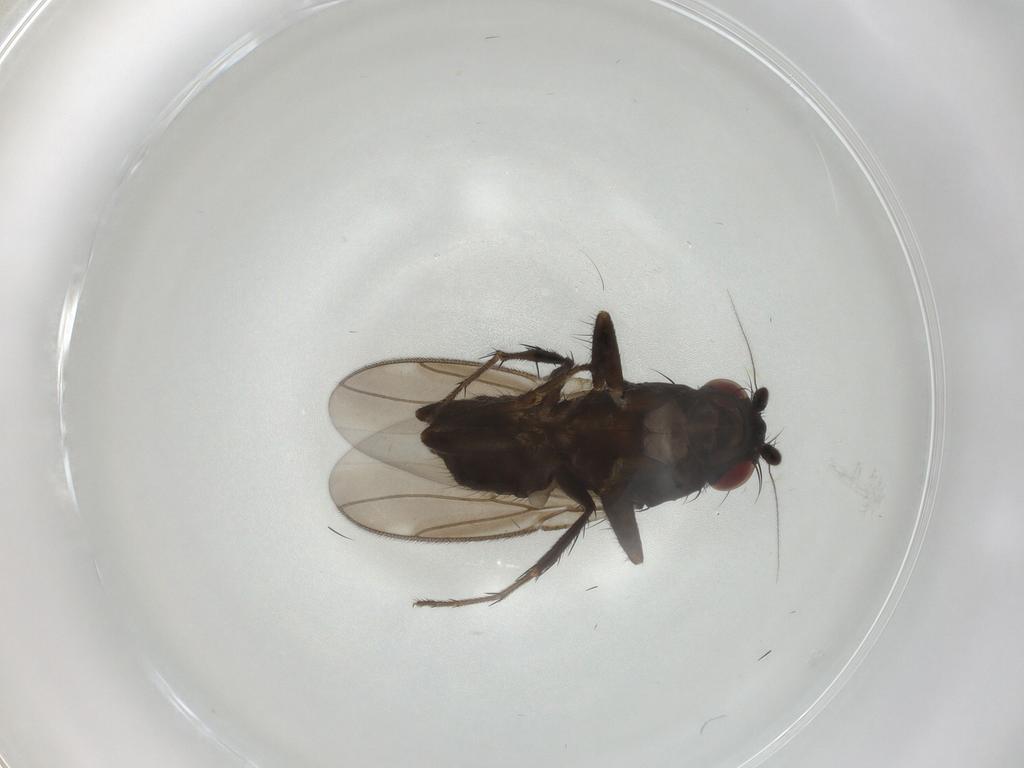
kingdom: Animalia
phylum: Arthropoda
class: Insecta
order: Diptera
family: Sphaeroceridae
